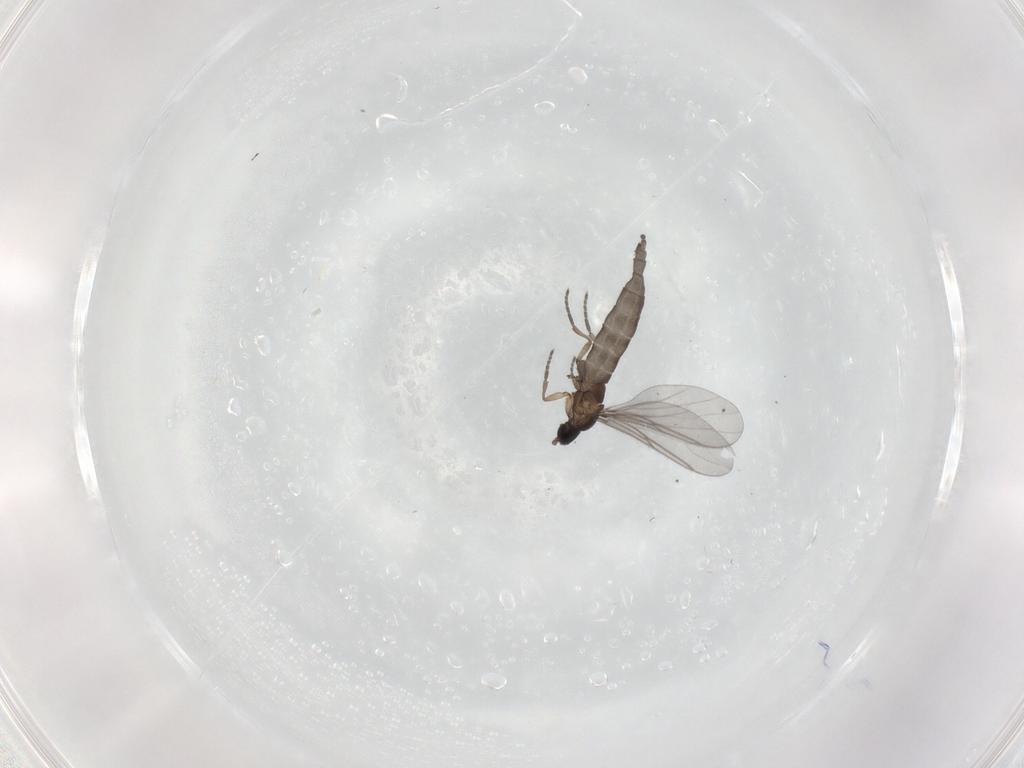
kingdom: Animalia
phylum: Arthropoda
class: Insecta
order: Diptera
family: Sciaridae
